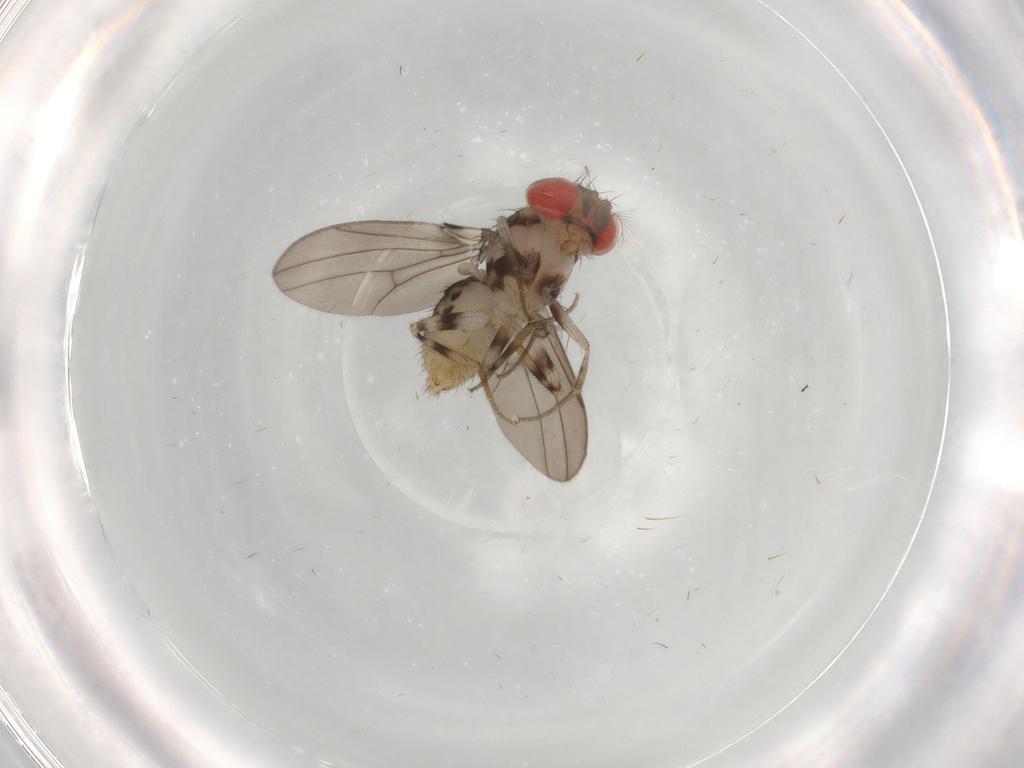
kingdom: Animalia
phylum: Arthropoda
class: Insecta
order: Diptera
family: Drosophilidae
